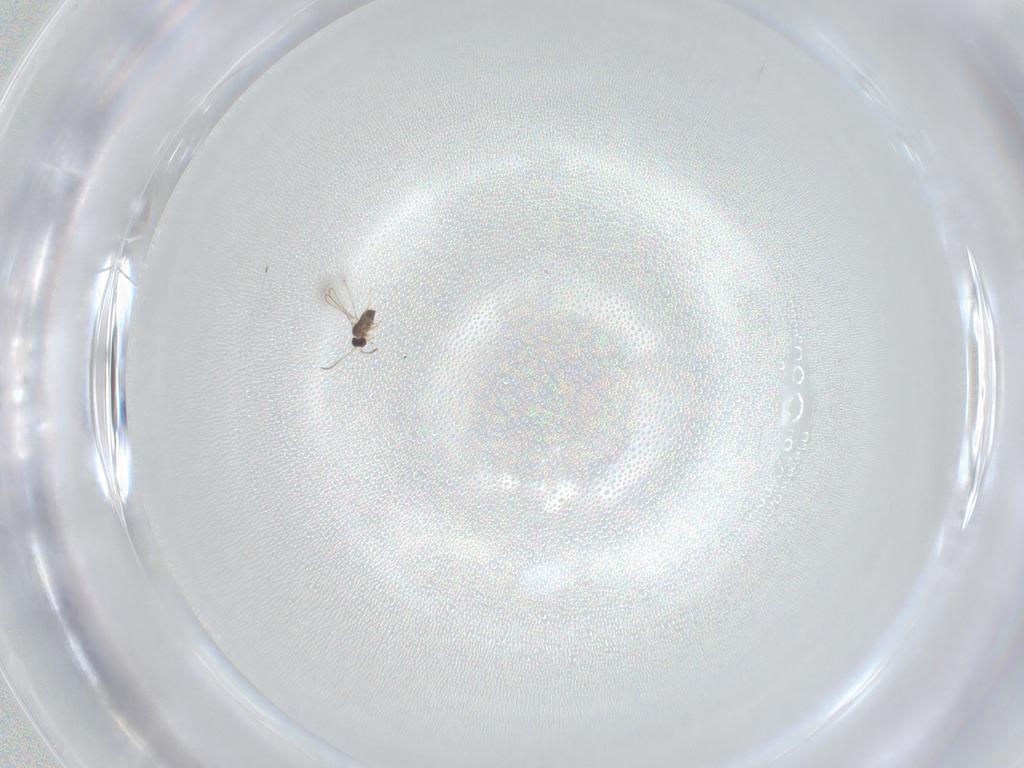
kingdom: Animalia
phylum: Arthropoda
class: Insecta
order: Hymenoptera
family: Mymaridae
